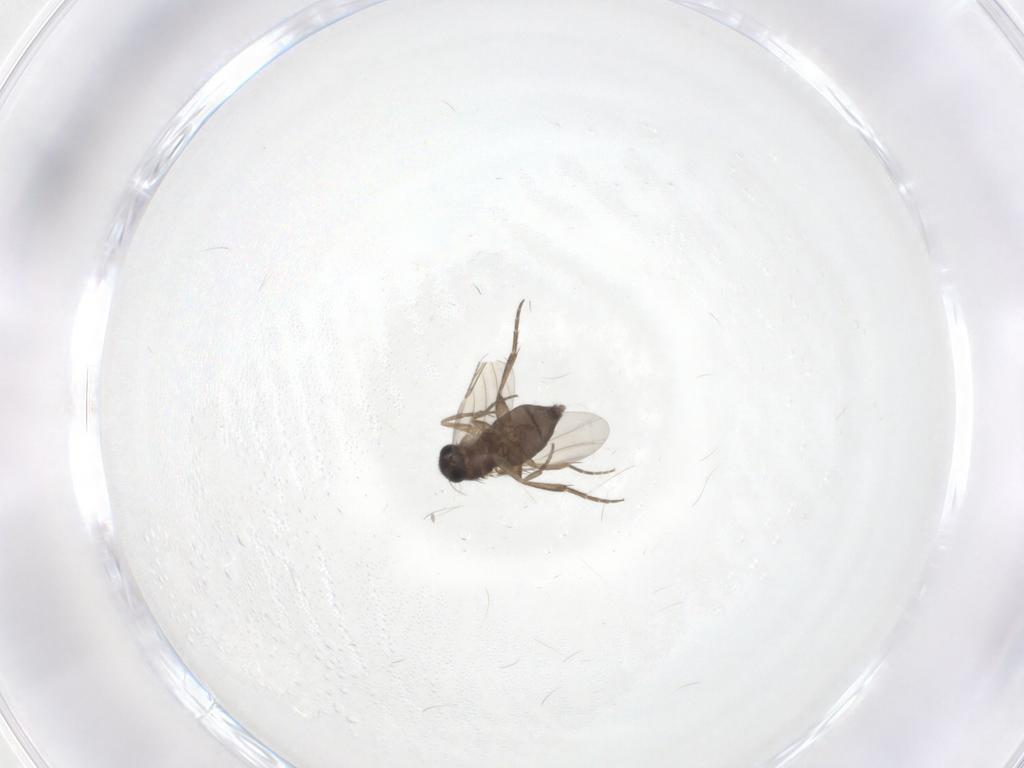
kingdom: Animalia
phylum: Arthropoda
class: Insecta
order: Diptera
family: Phoridae
